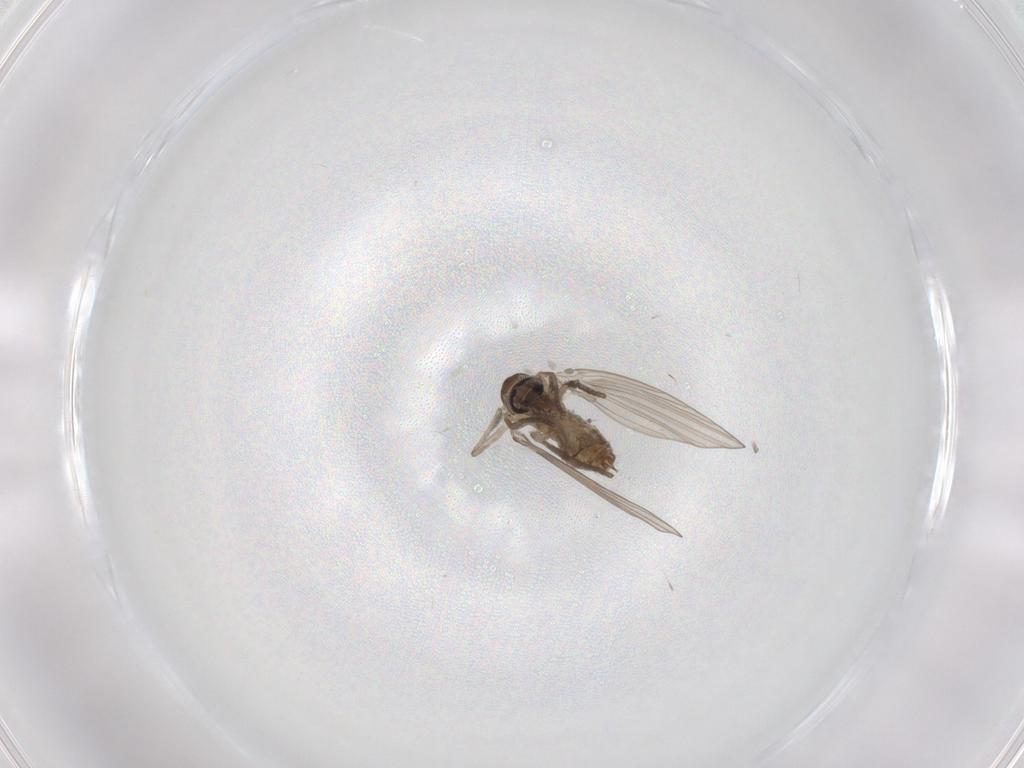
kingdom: Animalia
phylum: Arthropoda
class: Insecta
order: Diptera
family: Psychodidae
